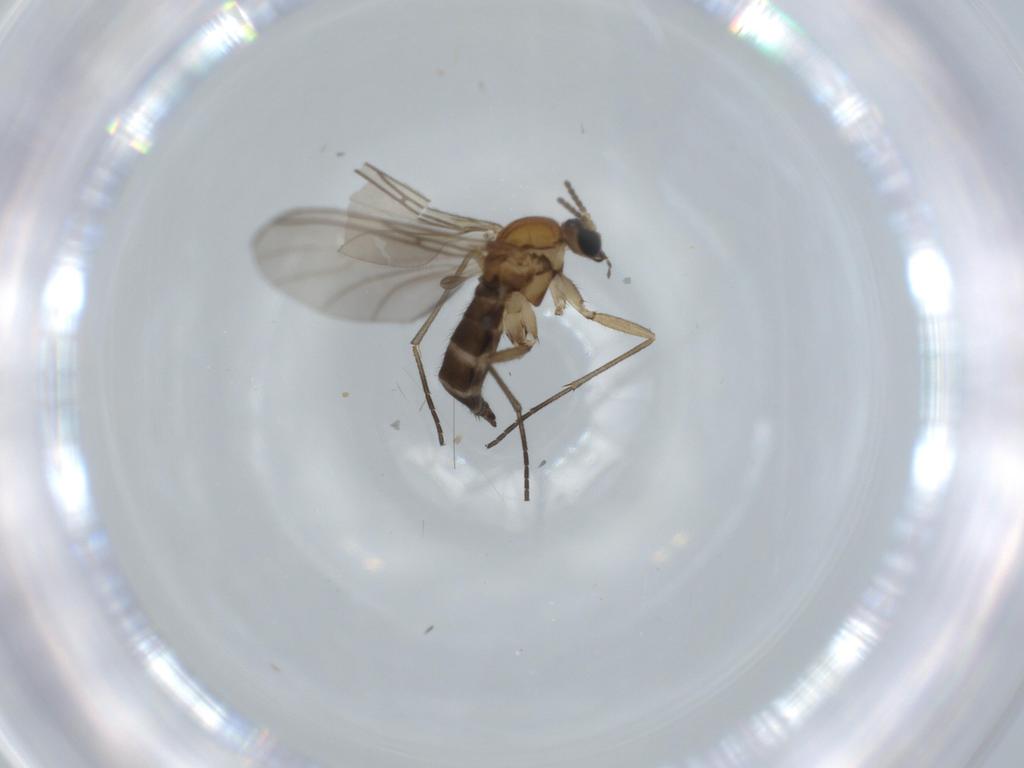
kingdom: Animalia
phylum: Arthropoda
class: Insecta
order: Diptera
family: Sciaridae
